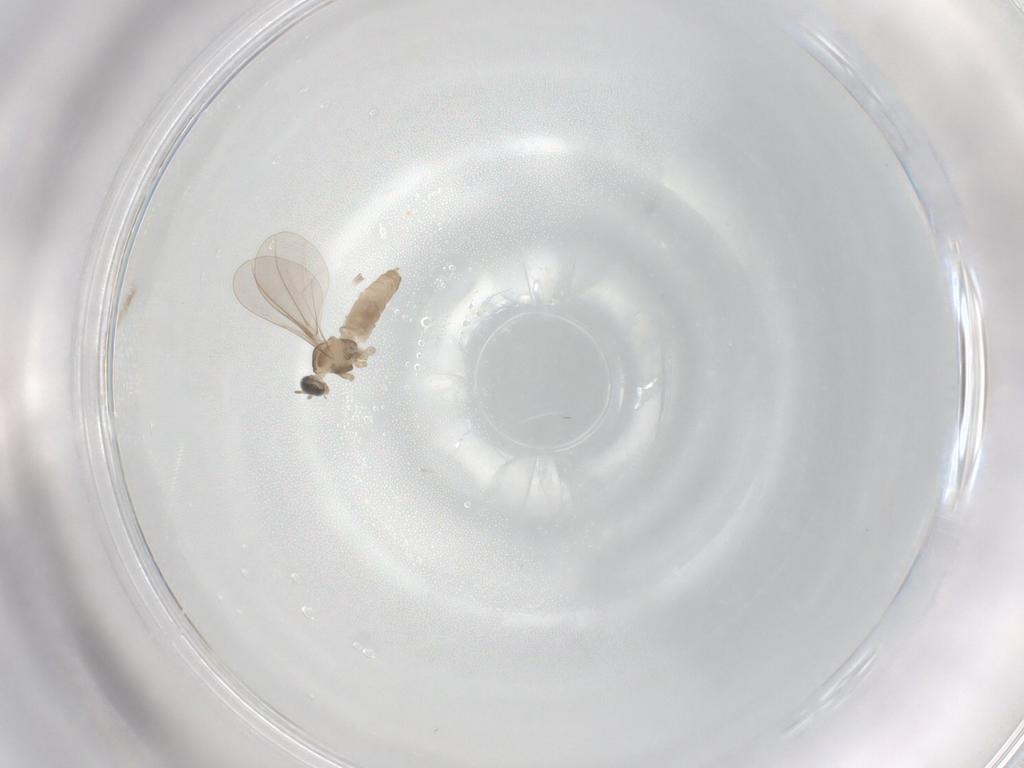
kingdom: Animalia
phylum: Arthropoda
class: Insecta
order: Diptera
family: Cecidomyiidae
